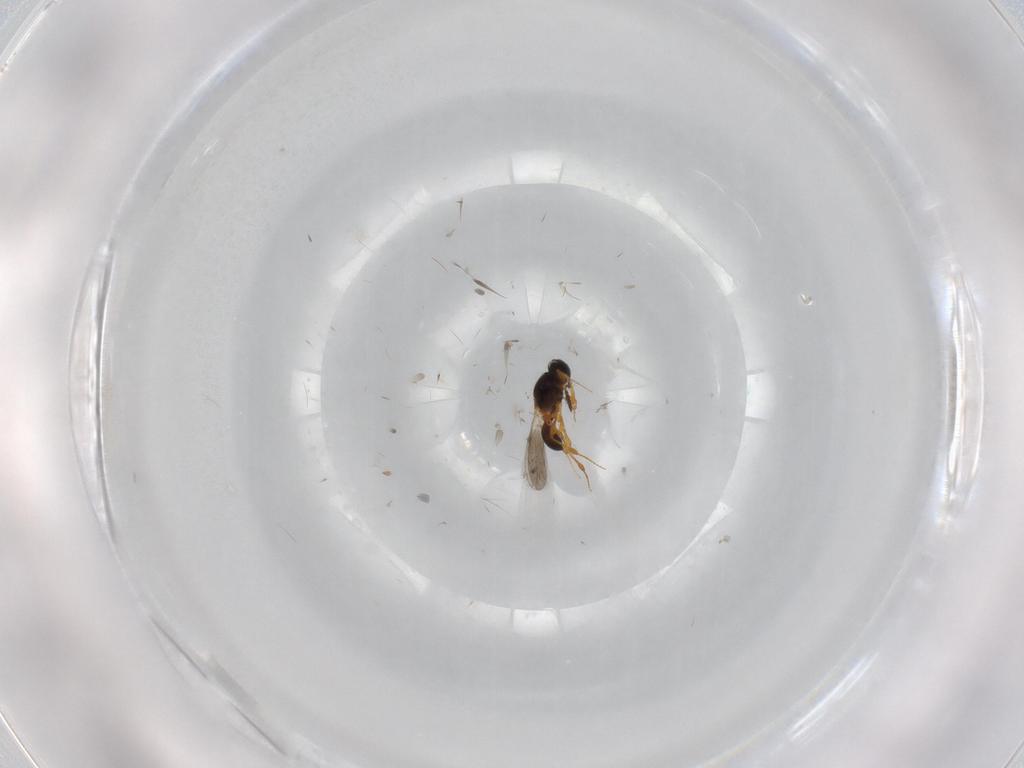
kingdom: Animalia
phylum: Arthropoda
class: Insecta
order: Hymenoptera
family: Platygastridae
